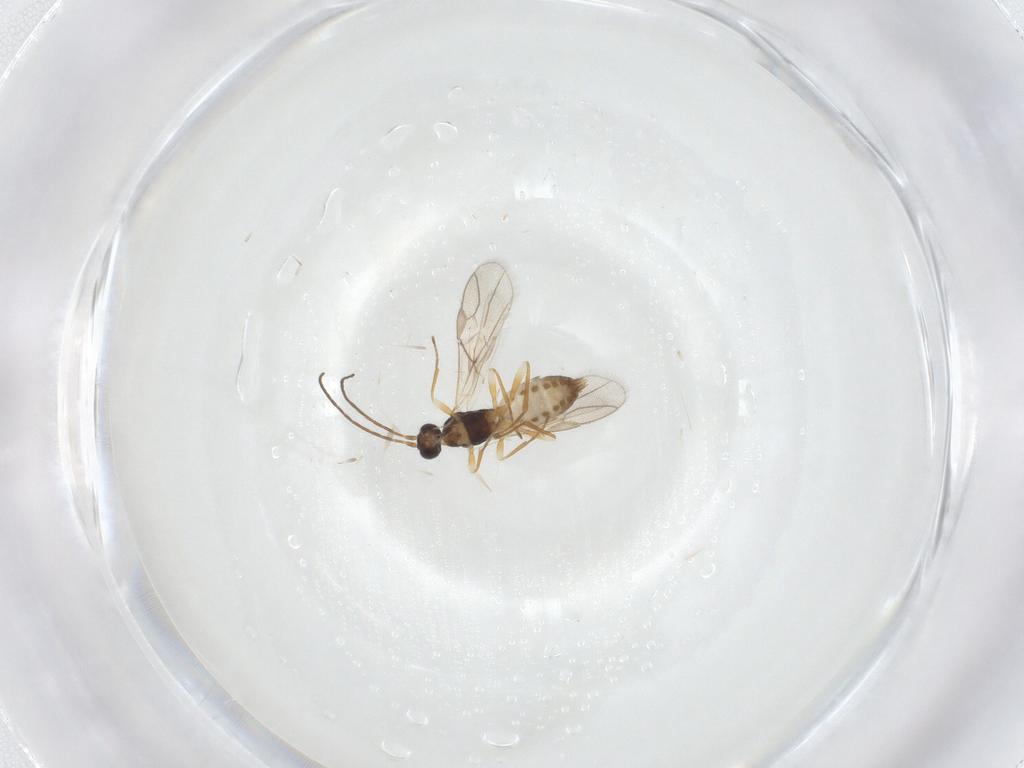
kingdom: Animalia
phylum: Arthropoda
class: Insecta
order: Hymenoptera
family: Braconidae
